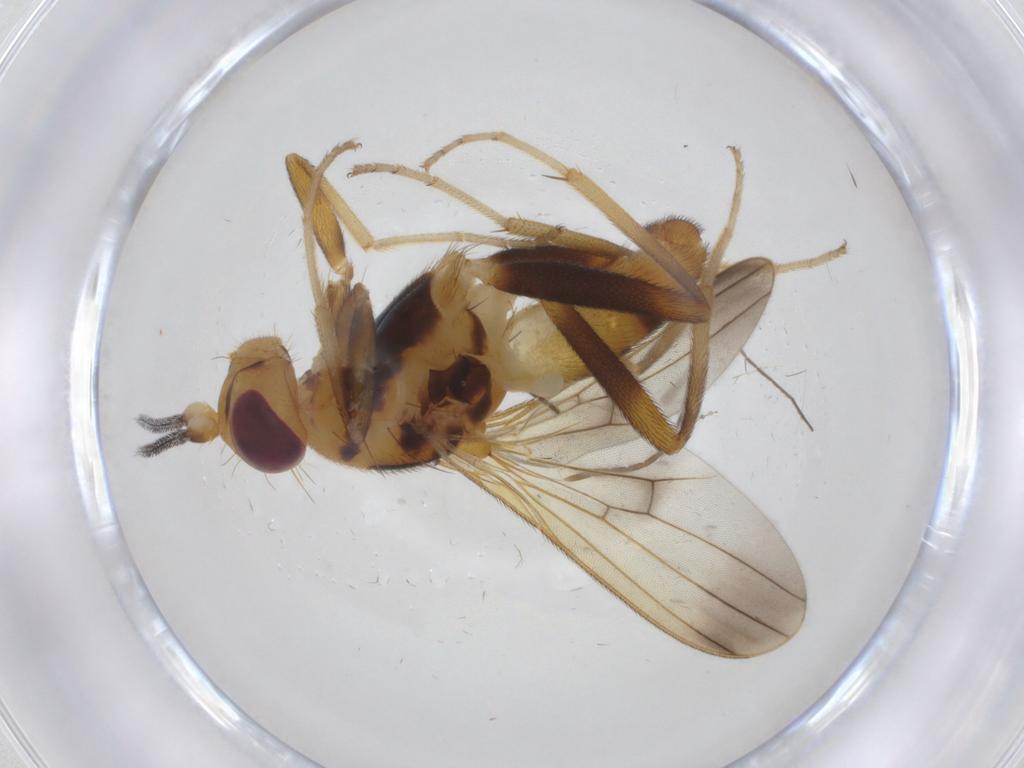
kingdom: Animalia
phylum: Arthropoda
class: Insecta
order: Diptera
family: Clusiidae
